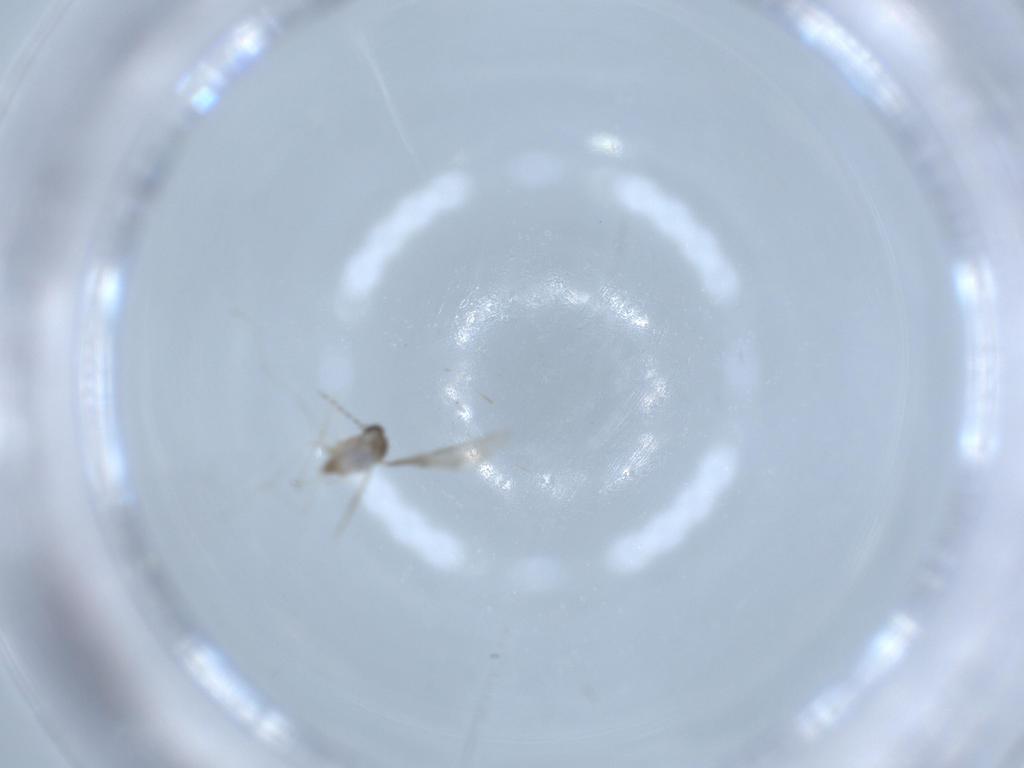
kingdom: Animalia
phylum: Arthropoda
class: Insecta
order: Diptera
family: Cecidomyiidae
